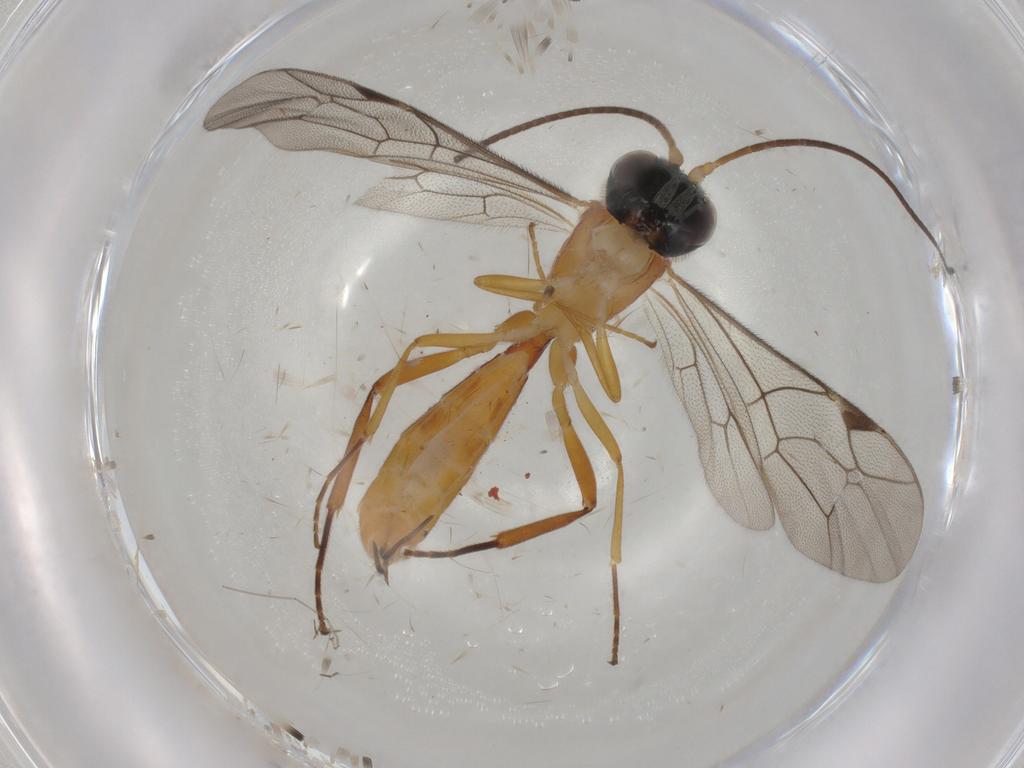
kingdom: Animalia
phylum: Arthropoda
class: Insecta
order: Hymenoptera
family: Ichneumonidae
